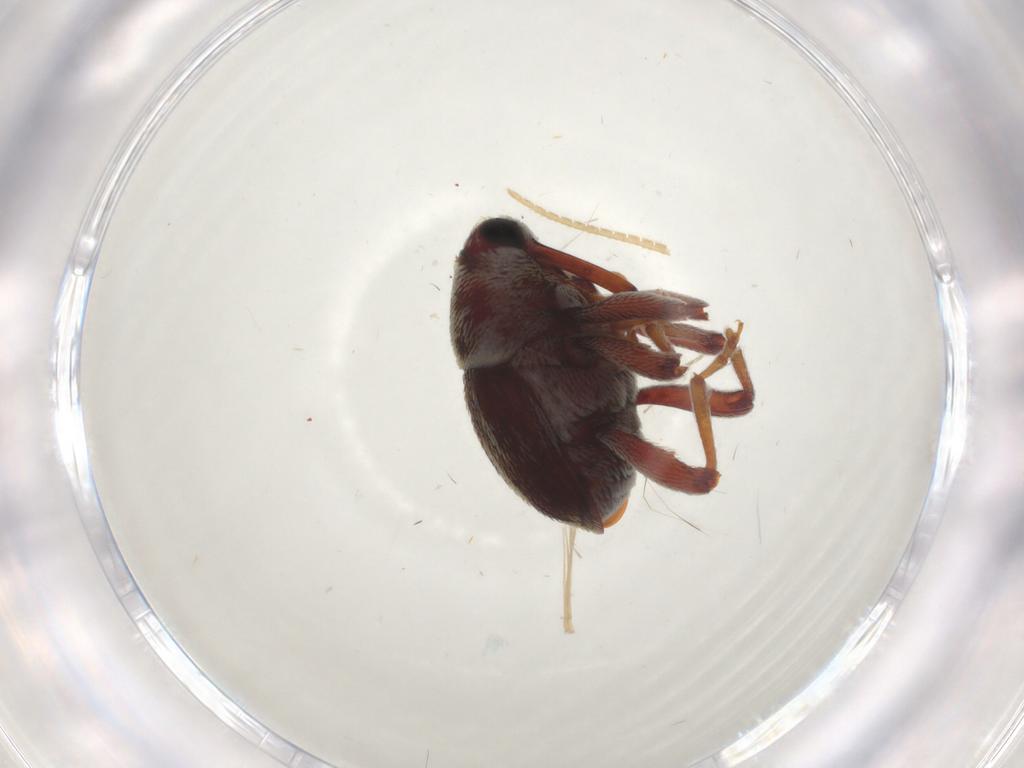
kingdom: Animalia
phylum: Arthropoda
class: Insecta
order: Coleoptera
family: Curculionidae
